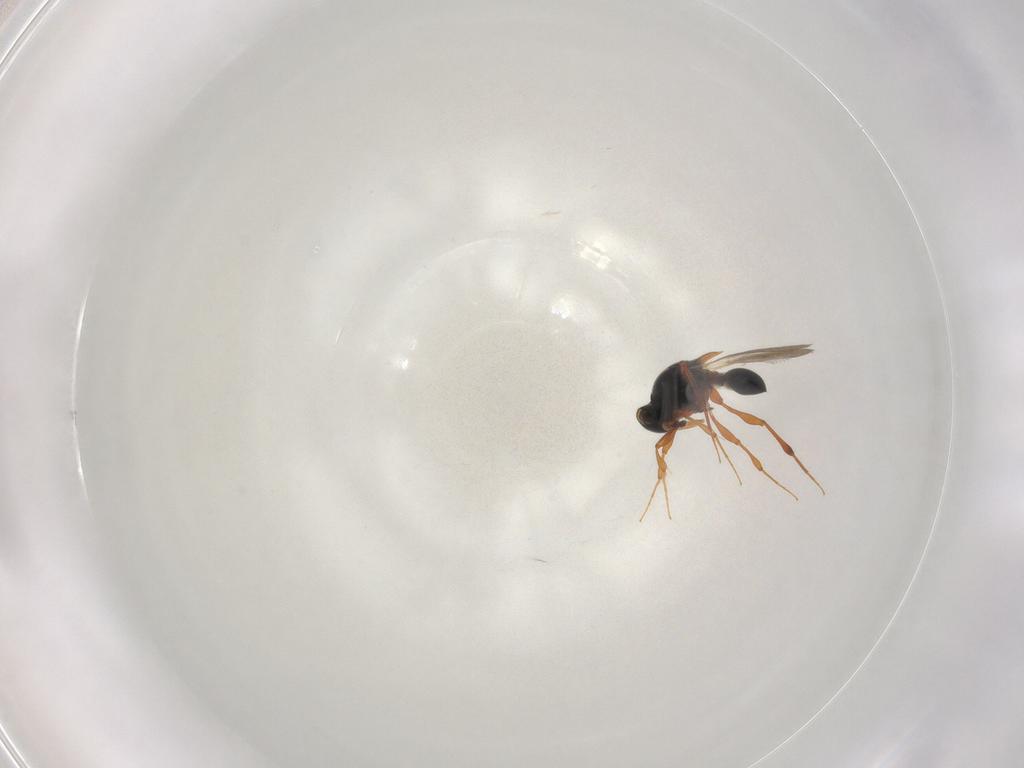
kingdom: Animalia
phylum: Arthropoda
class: Insecta
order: Hymenoptera
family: Platygastridae
